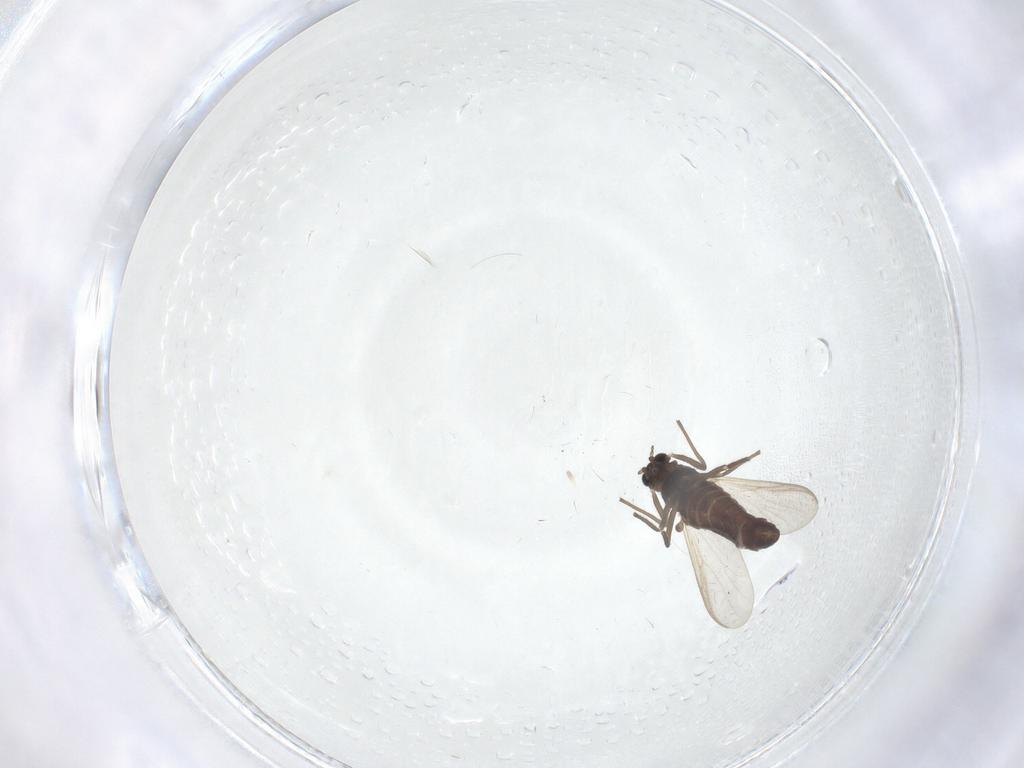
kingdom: Animalia
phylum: Arthropoda
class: Insecta
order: Diptera
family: Chironomidae
